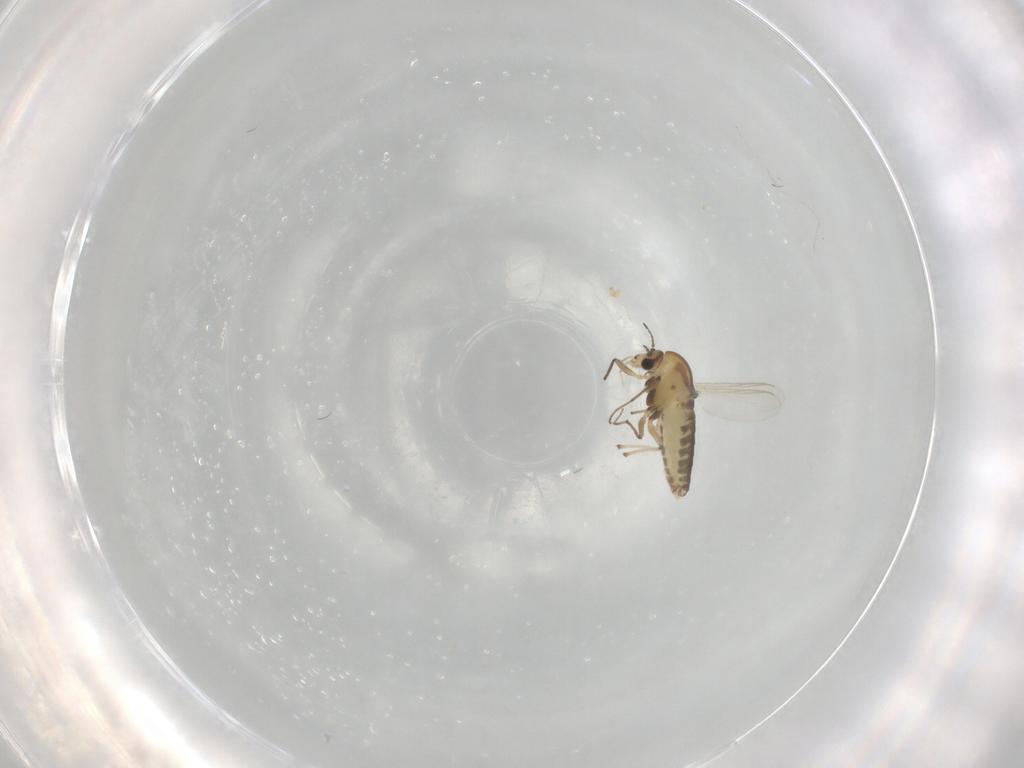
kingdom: Animalia
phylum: Arthropoda
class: Insecta
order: Diptera
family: Chironomidae
